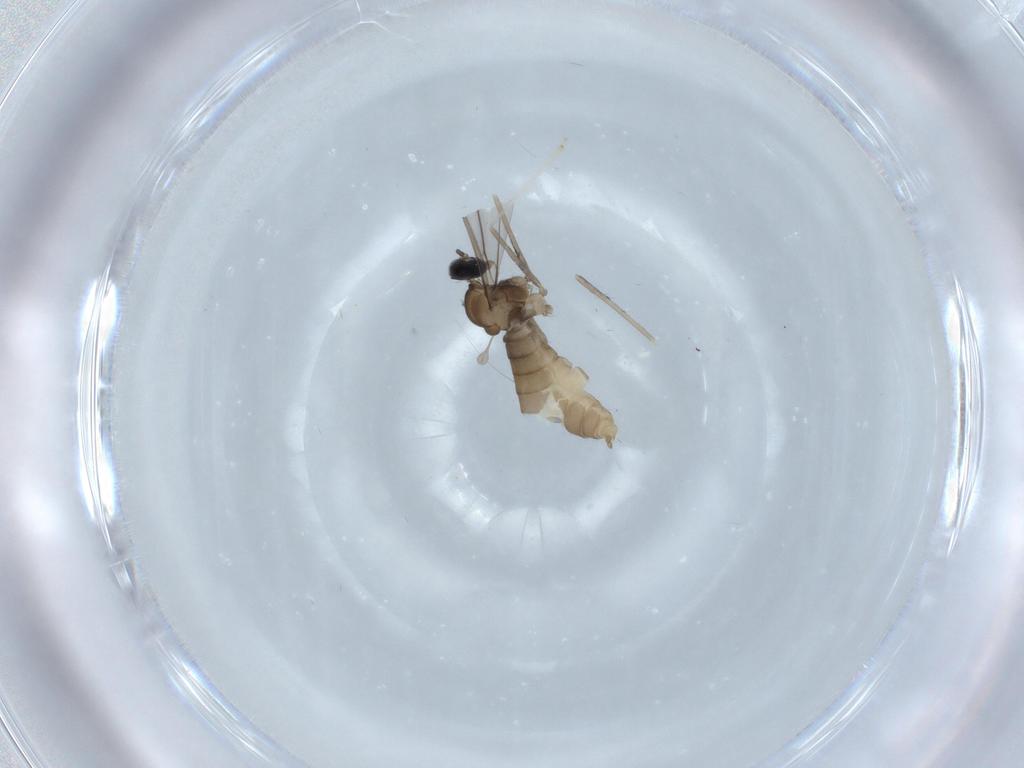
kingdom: Animalia
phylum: Arthropoda
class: Insecta
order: Diptera
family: Cecidomyiidae
